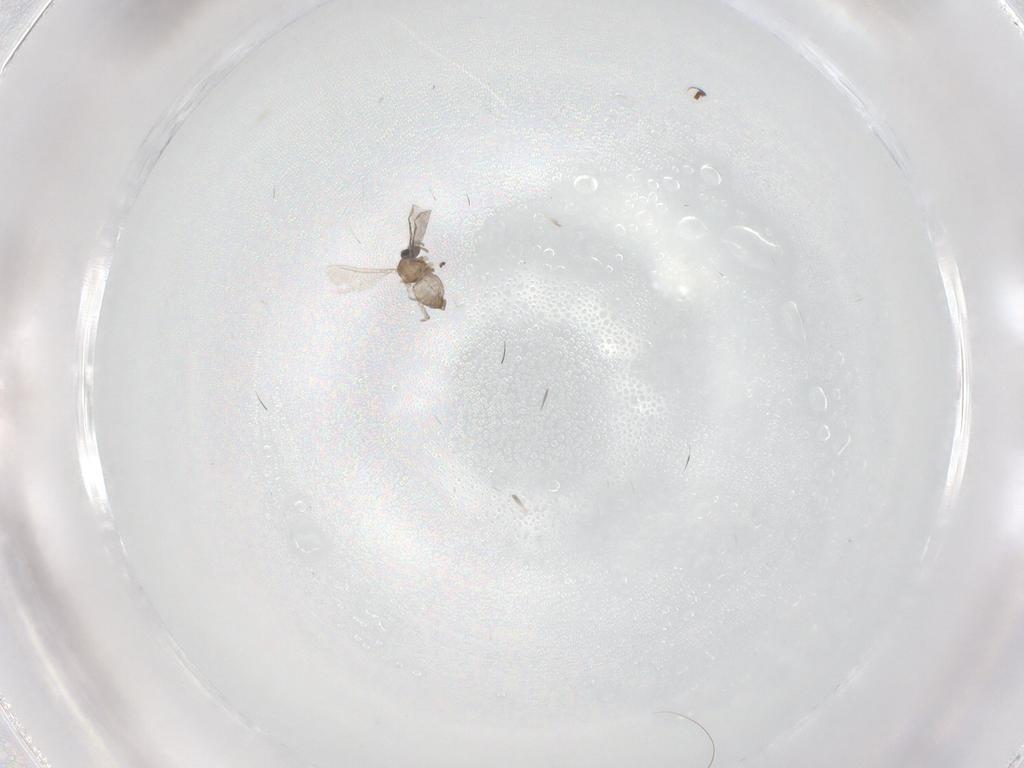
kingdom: Animalia
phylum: Arthropoda
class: Insecta
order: Diptera
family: Cecidomyiidae
